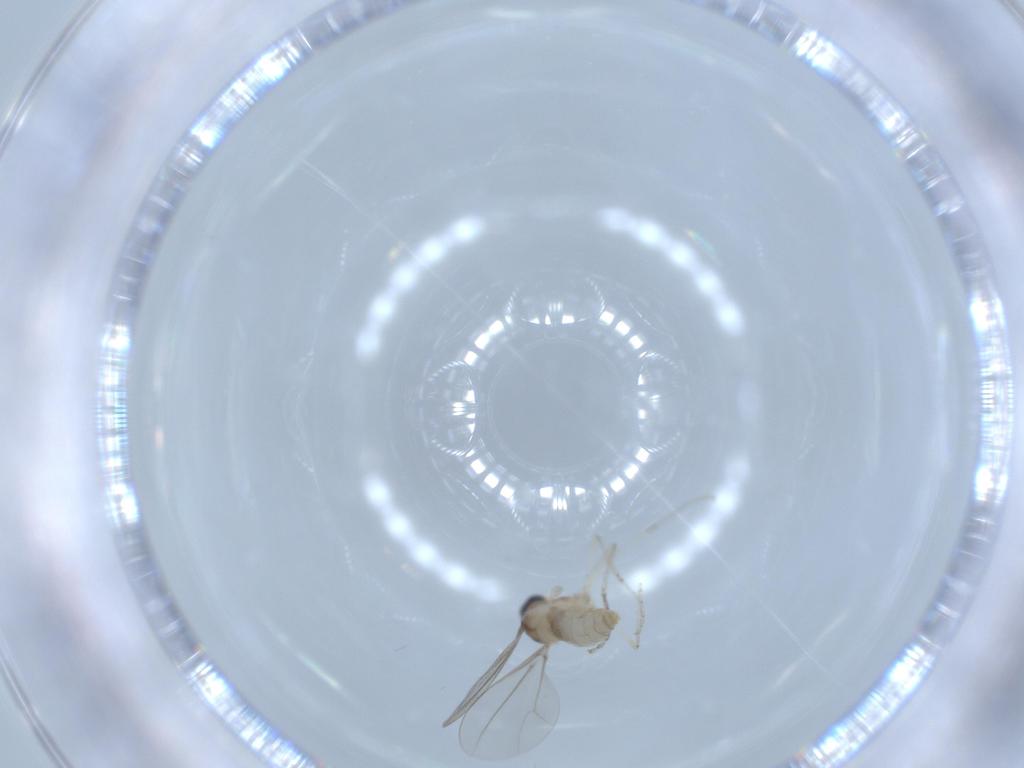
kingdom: Animalia
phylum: Arthropoda
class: Insecta
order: Diptera
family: Cecidomyiidae
